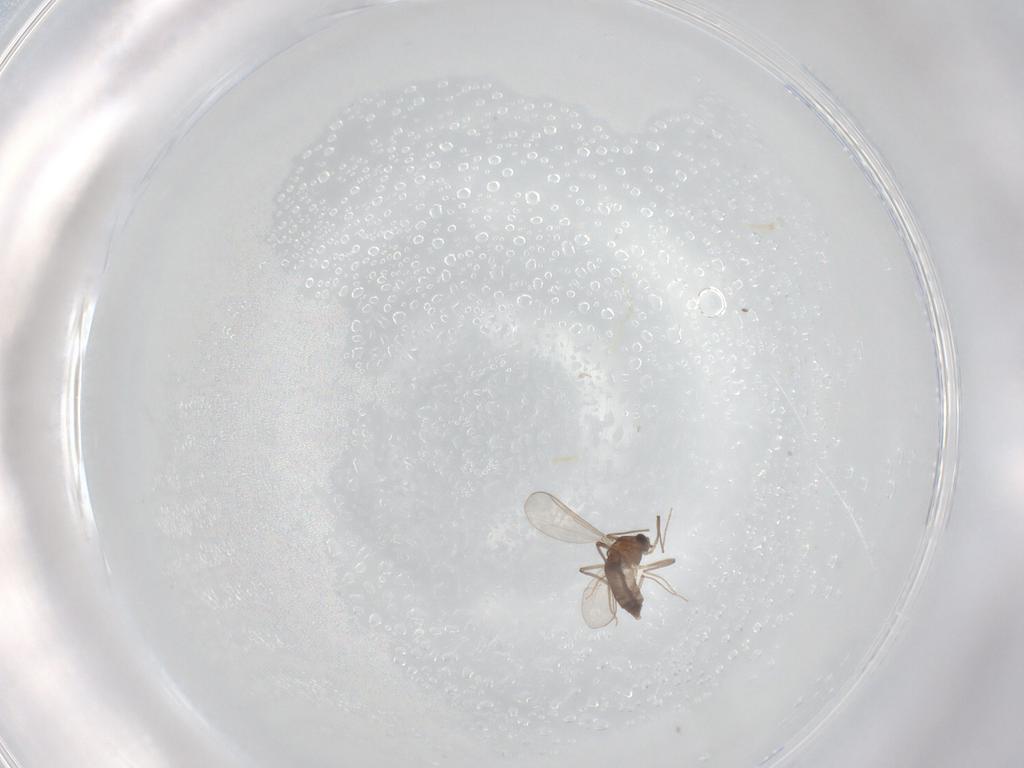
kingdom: Animalia
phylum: Arthropoda
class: Insecta
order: Diptera
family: Chironomidae
